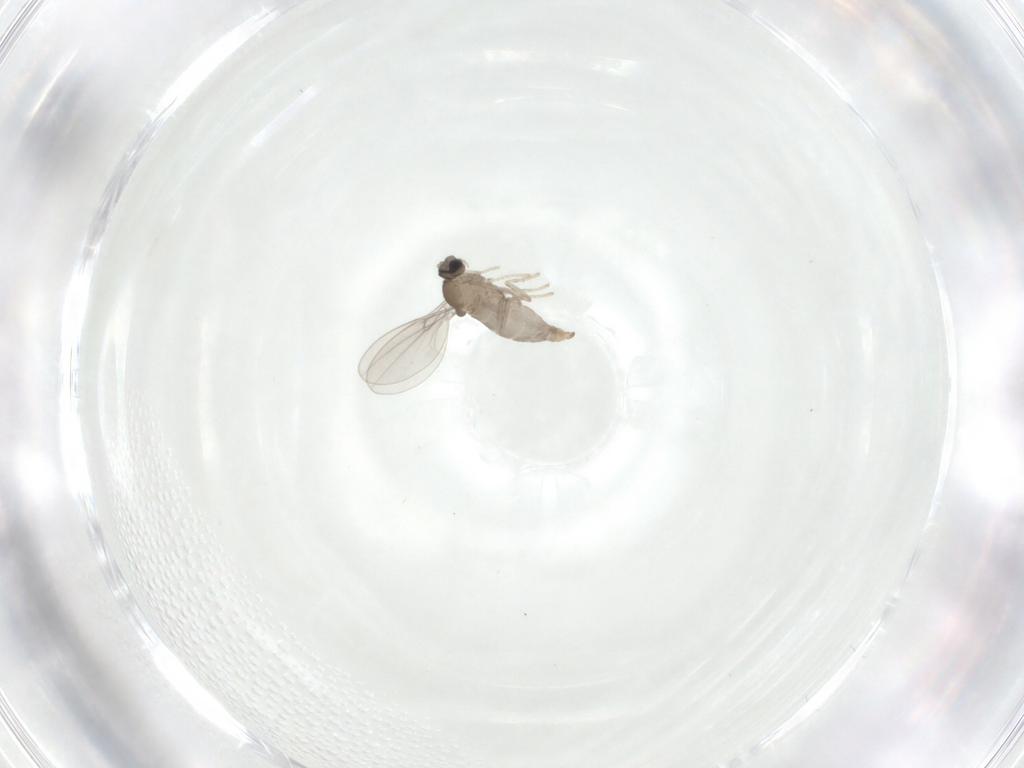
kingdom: Animalia
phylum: Arthropoda
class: Insecta
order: Diptera
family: Cecidomyiidae
